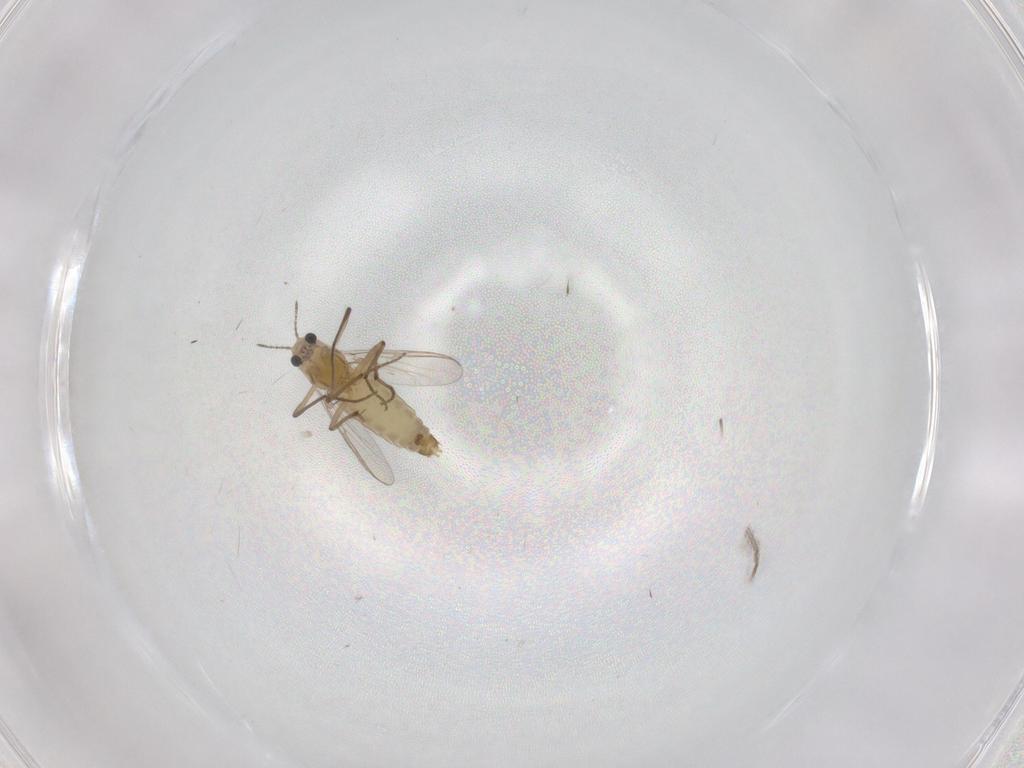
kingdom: Animalia
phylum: Arthropoda
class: Insecta
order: Diptera
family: Chironomidae
